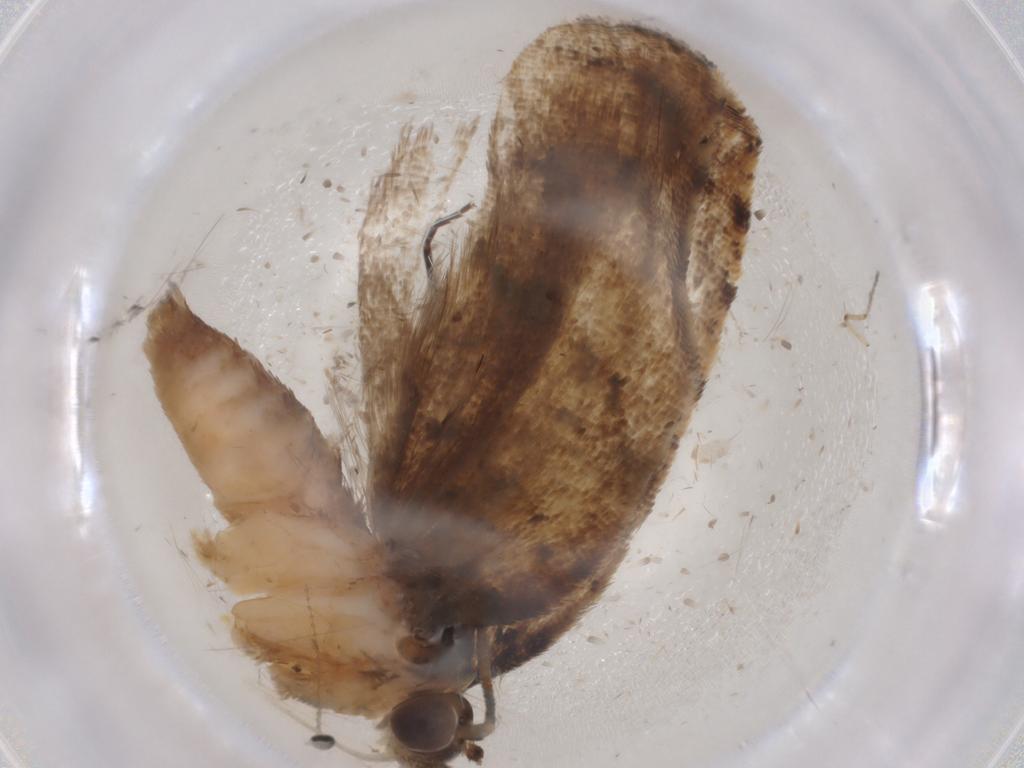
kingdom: Animalia
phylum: Arthropoda
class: Insecta
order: Lepidoptera
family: Tortricidae
